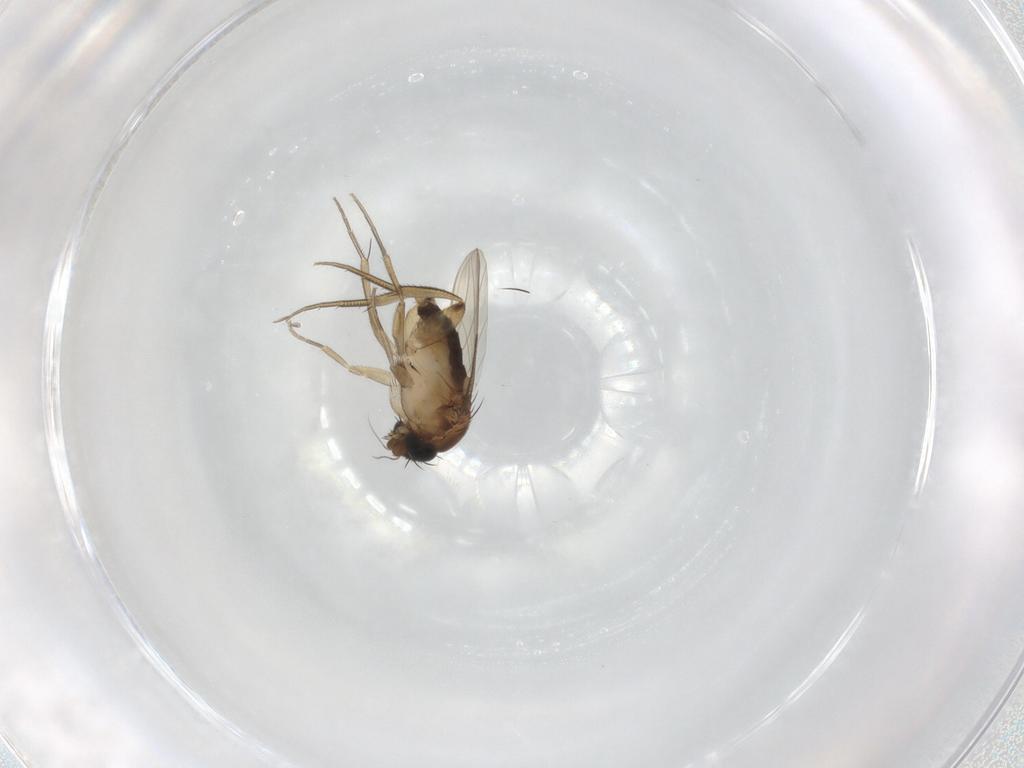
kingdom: Animalia
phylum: Arthropoda
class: Insecta
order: Diptera
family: Phoridae
